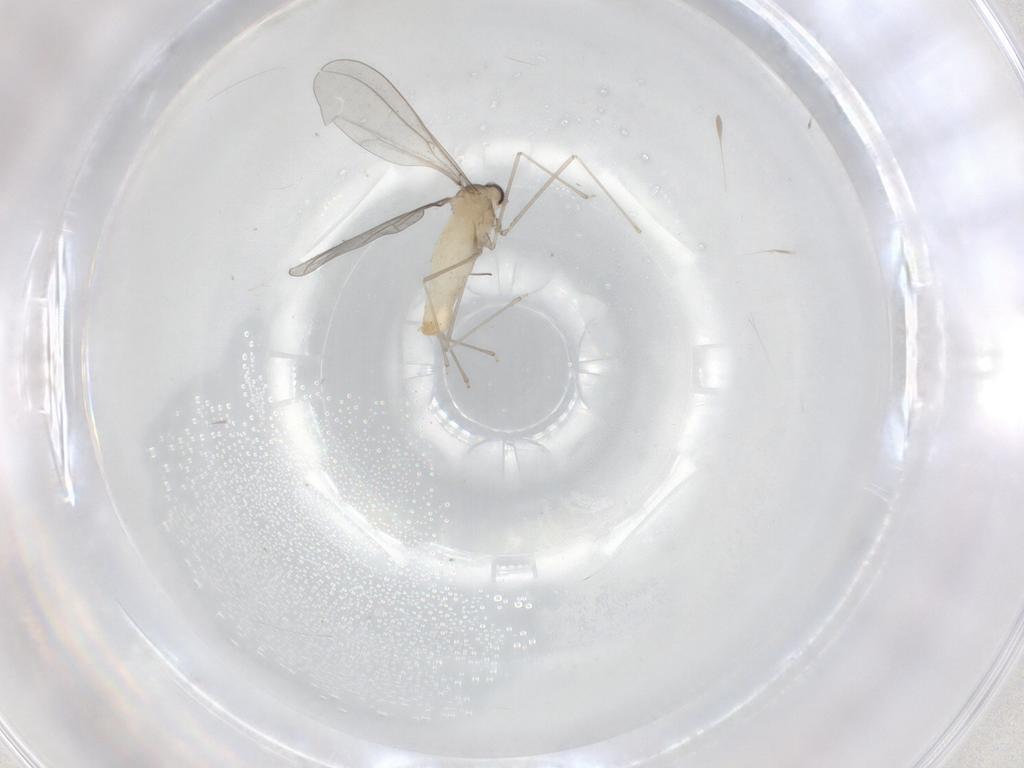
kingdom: Animalia
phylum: Arthropoda
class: Insecta
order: Diptera
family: Cecidomyiidae
